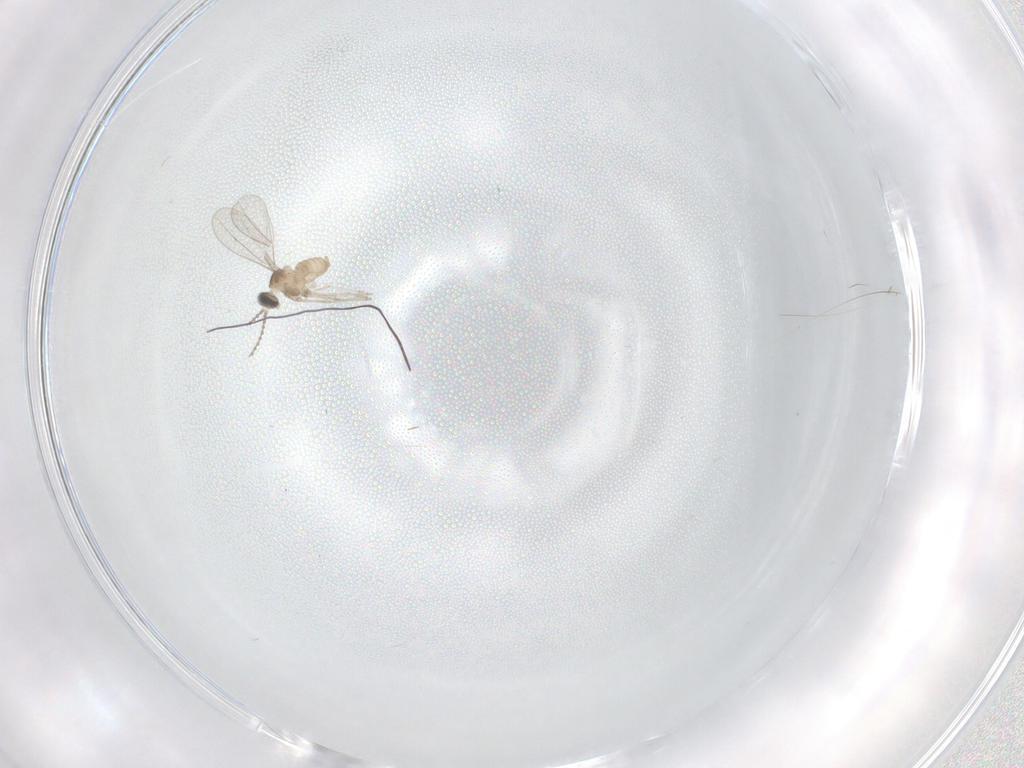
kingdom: Animalia
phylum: Arthropoda
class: Insecta
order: Diptera
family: Cecidomyiidae
